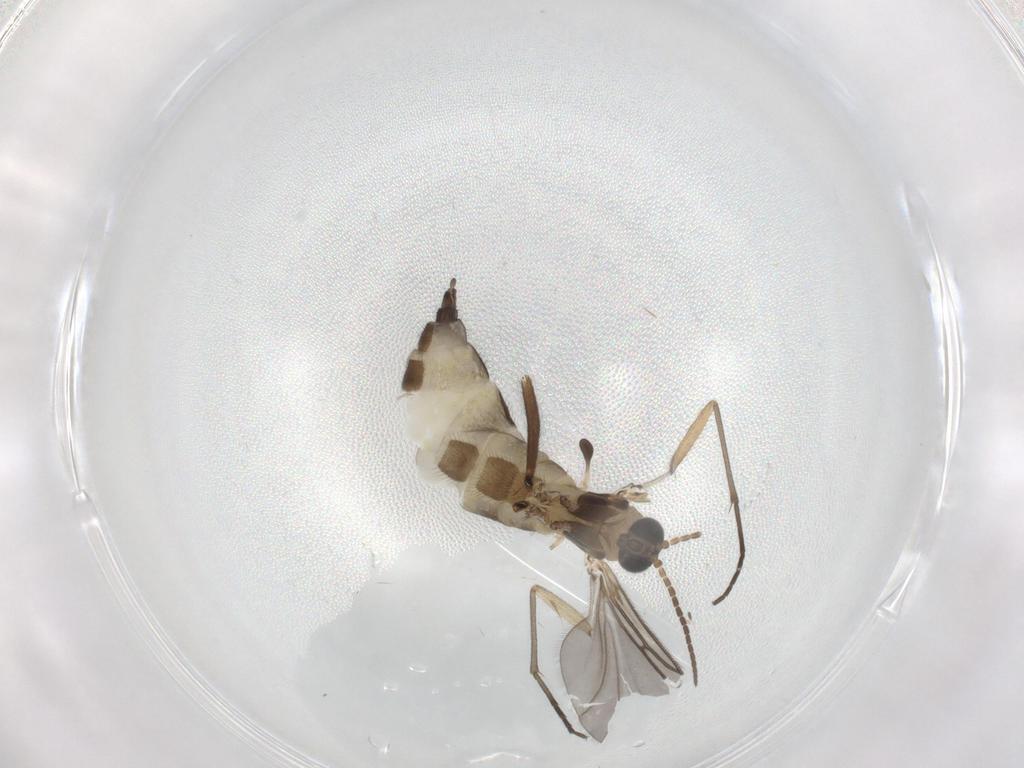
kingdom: Animalia
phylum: Arthropoda
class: Insecta
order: Diptera
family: Sciaridae
